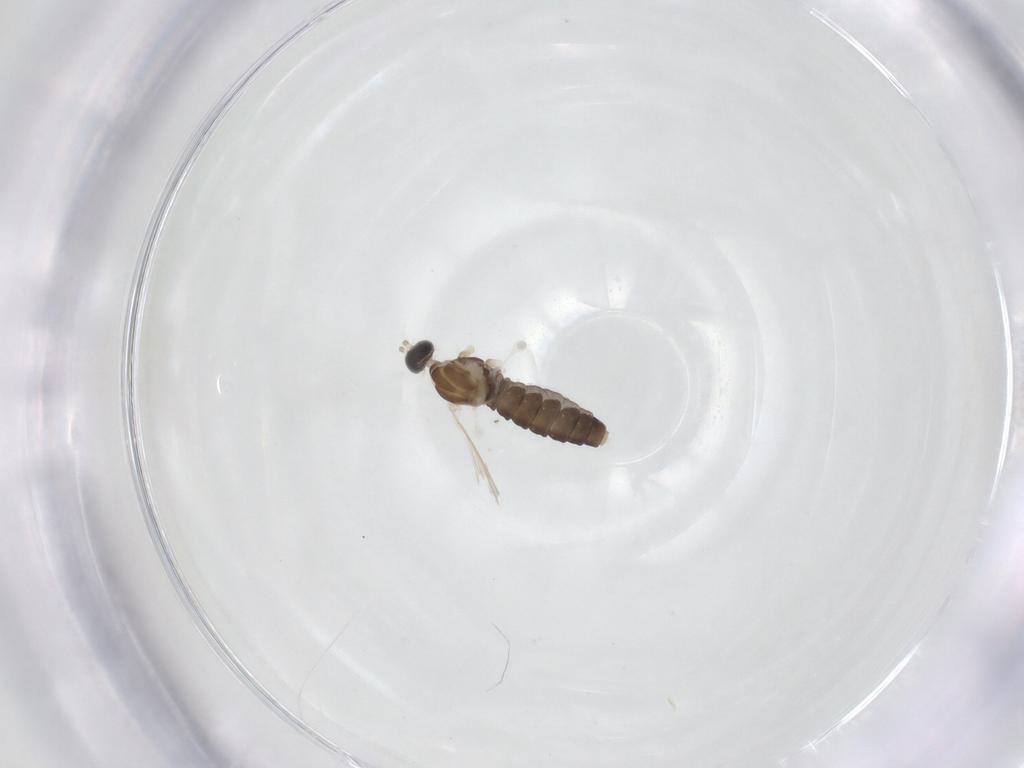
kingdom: Animalia
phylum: Arthropoda
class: Insecta
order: Diptera
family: Cecidomyiidae
